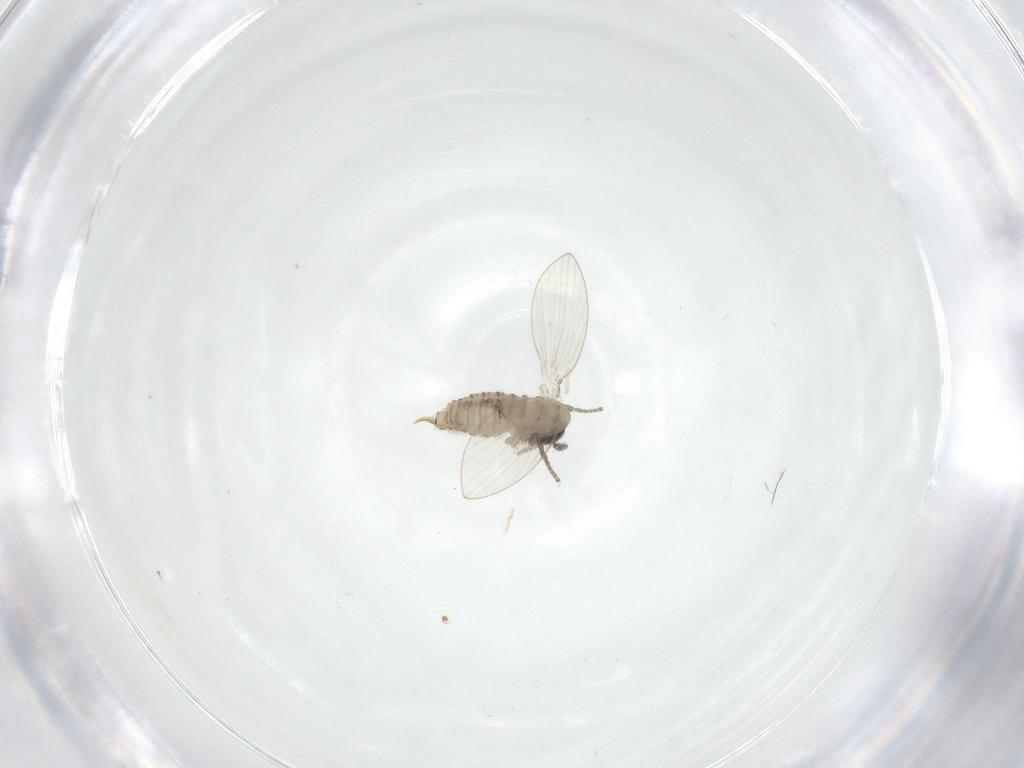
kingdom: Animalia
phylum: Arthropoda
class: Insecta
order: Diptera
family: Psychodidae
